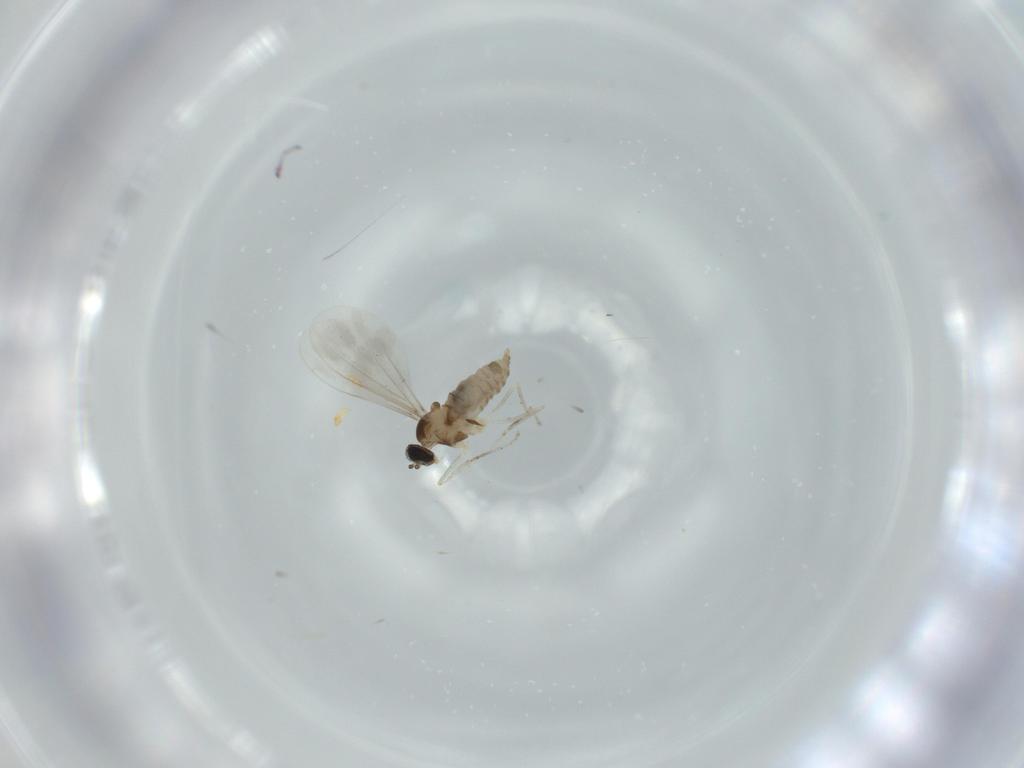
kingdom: Animalia
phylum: Arthropoda
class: Insecta
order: Diptera
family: Cecidomyiidae
